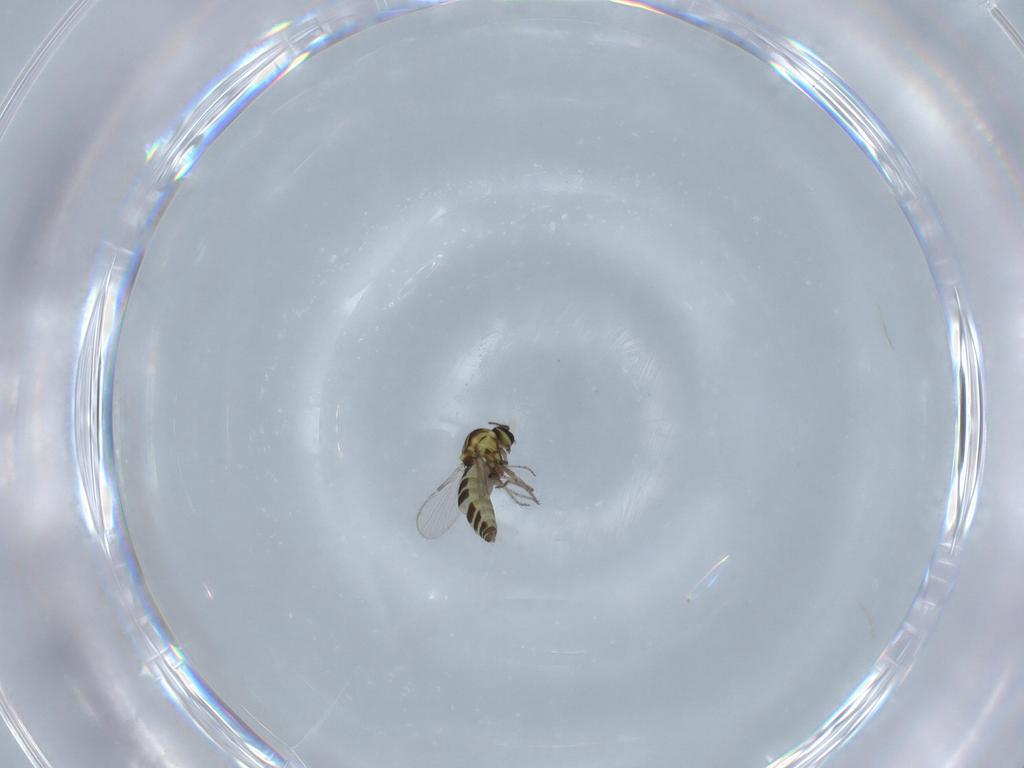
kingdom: Animalia
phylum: Arthropoda
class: Insecta
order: Diptera
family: Ceratopogonidae
